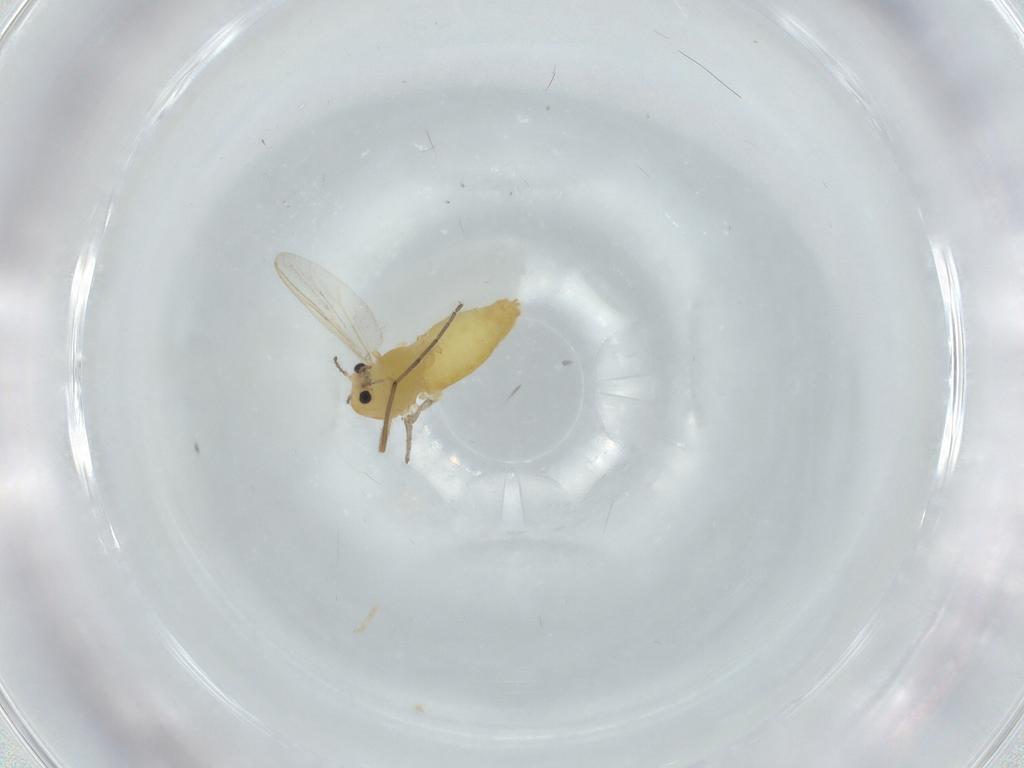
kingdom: Animalia
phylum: Arthropoda
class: Insecta
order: Diptera
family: Chironomidae
